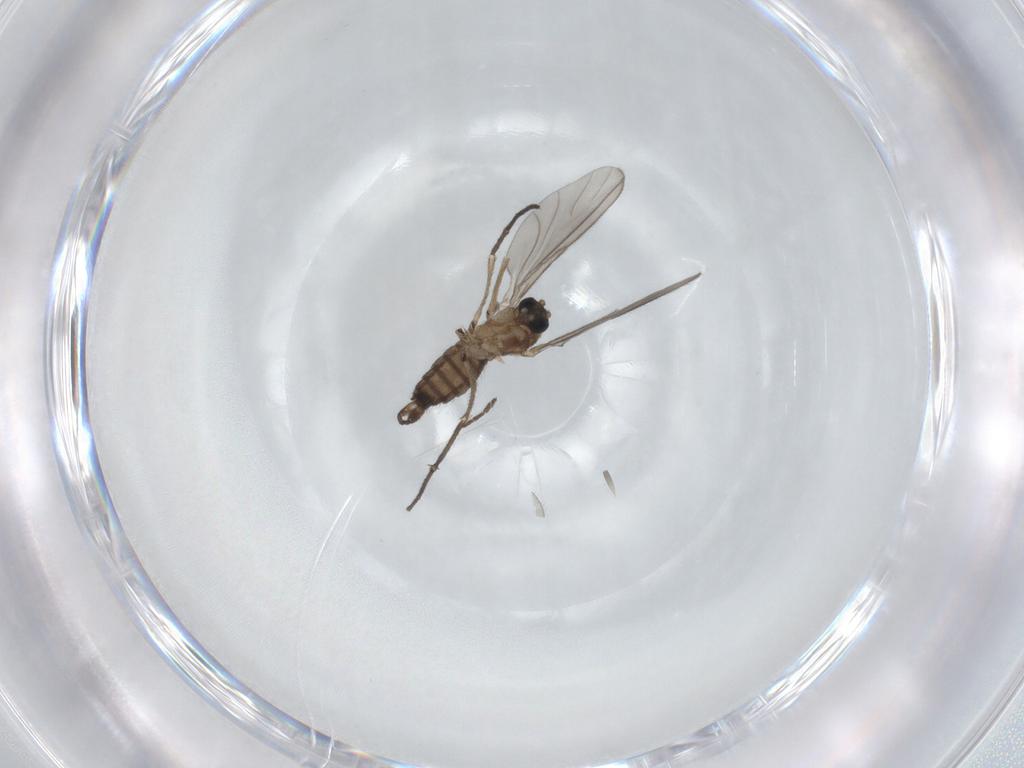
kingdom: Animalia
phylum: Arthropoda
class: Insecta
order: Diptera
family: Sciaridae
